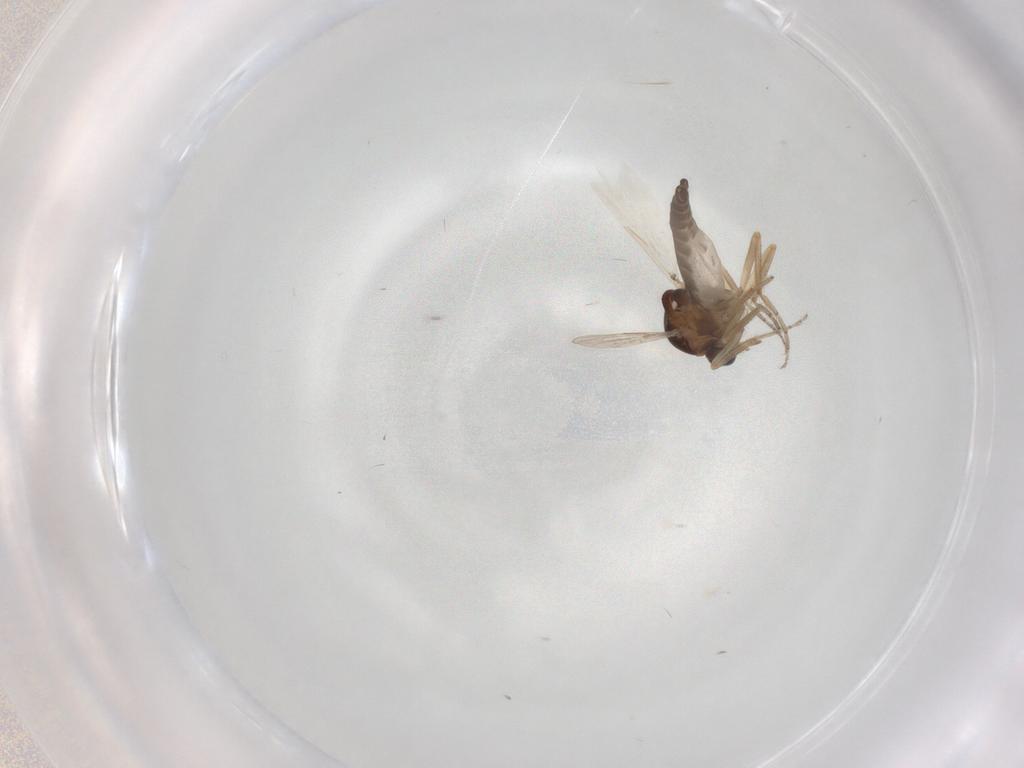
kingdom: Animalia
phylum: Arthropoda
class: Insecta
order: Diptera
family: Ceratopogonidae
